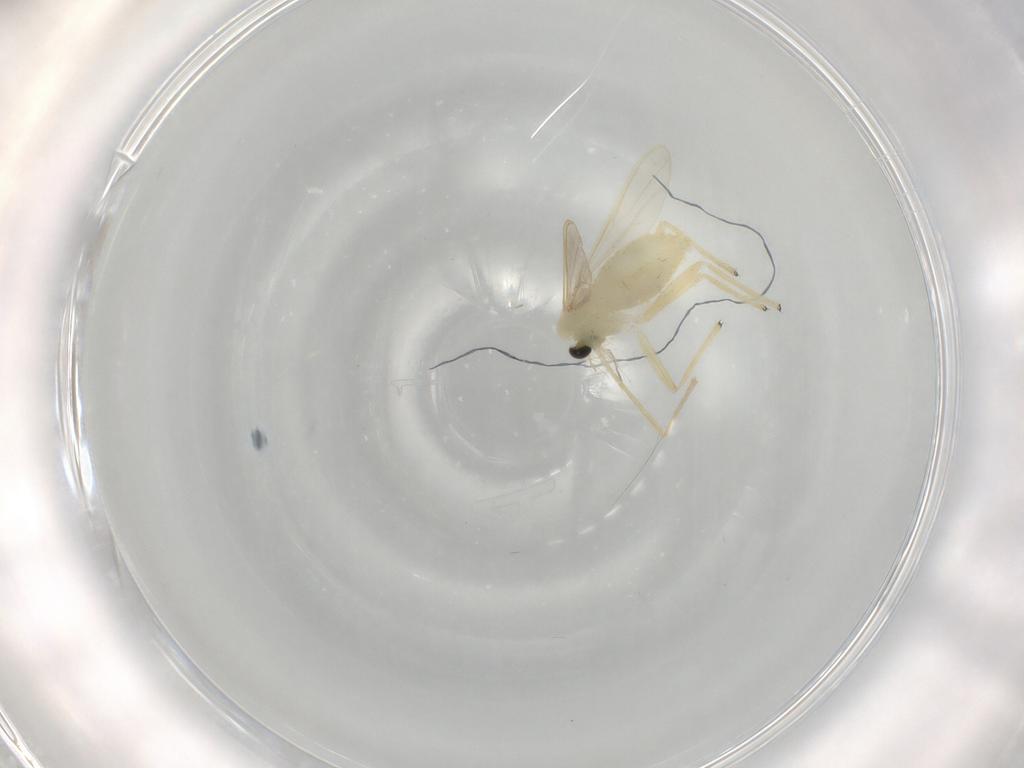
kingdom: Animalia
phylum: Arthropoda
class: Insecta
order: Diptera
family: Chironomidae
